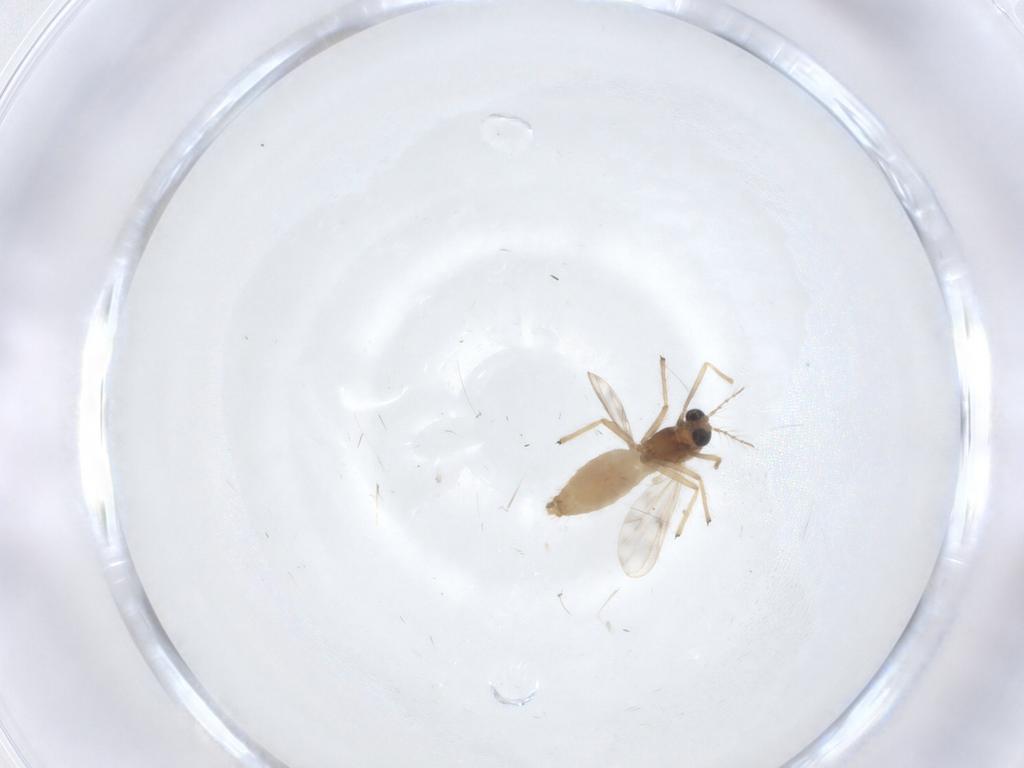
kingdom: Animalia
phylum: Arthropoda
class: Insecta
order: Diptera
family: Chironomidae
